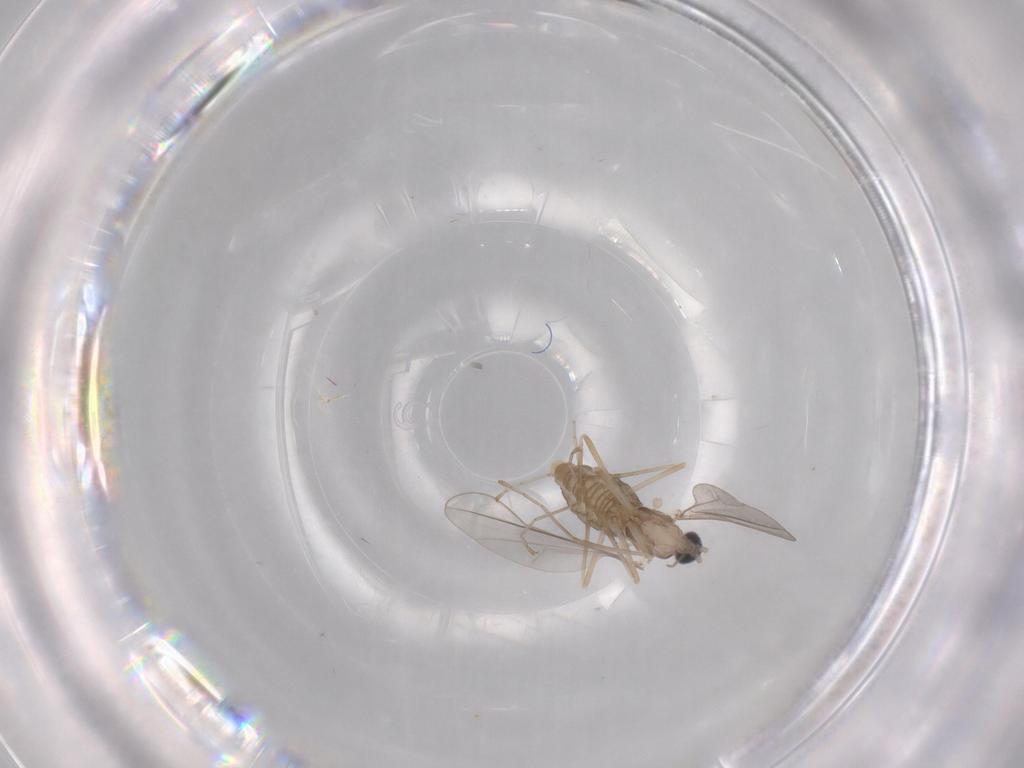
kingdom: Animalia
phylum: Arthropoda
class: Insecta
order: Diptera
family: Cecidomyiidae
